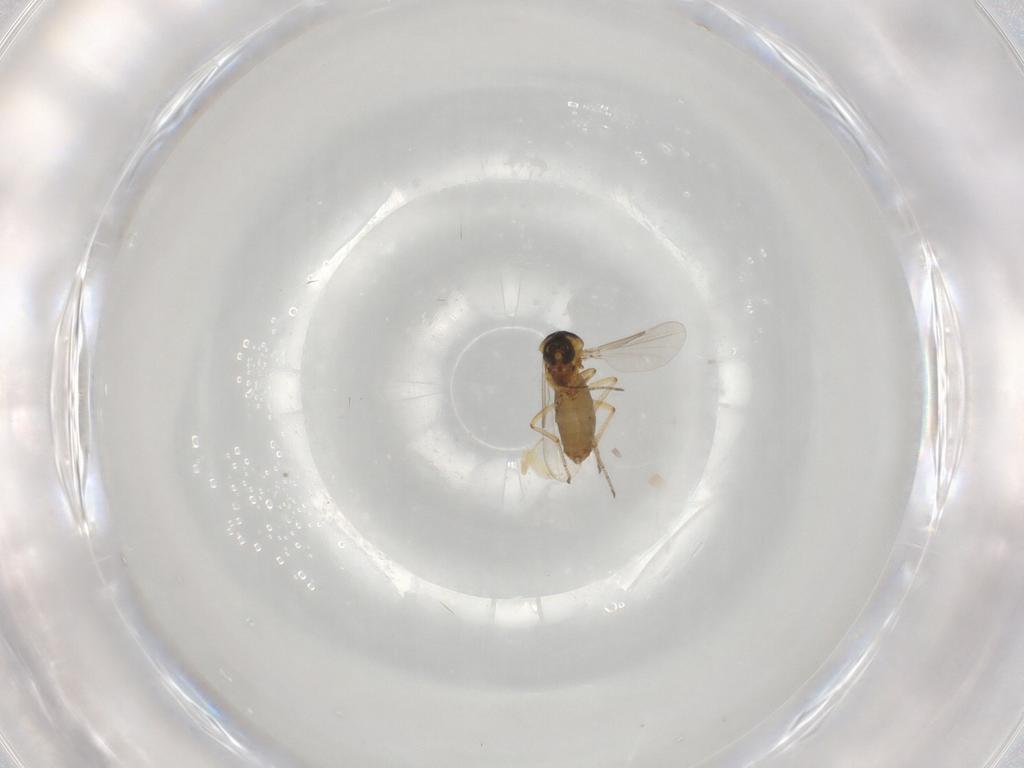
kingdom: Animalia
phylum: Arthropoda
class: Insecta
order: Diptera
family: Ceratopogonidae
